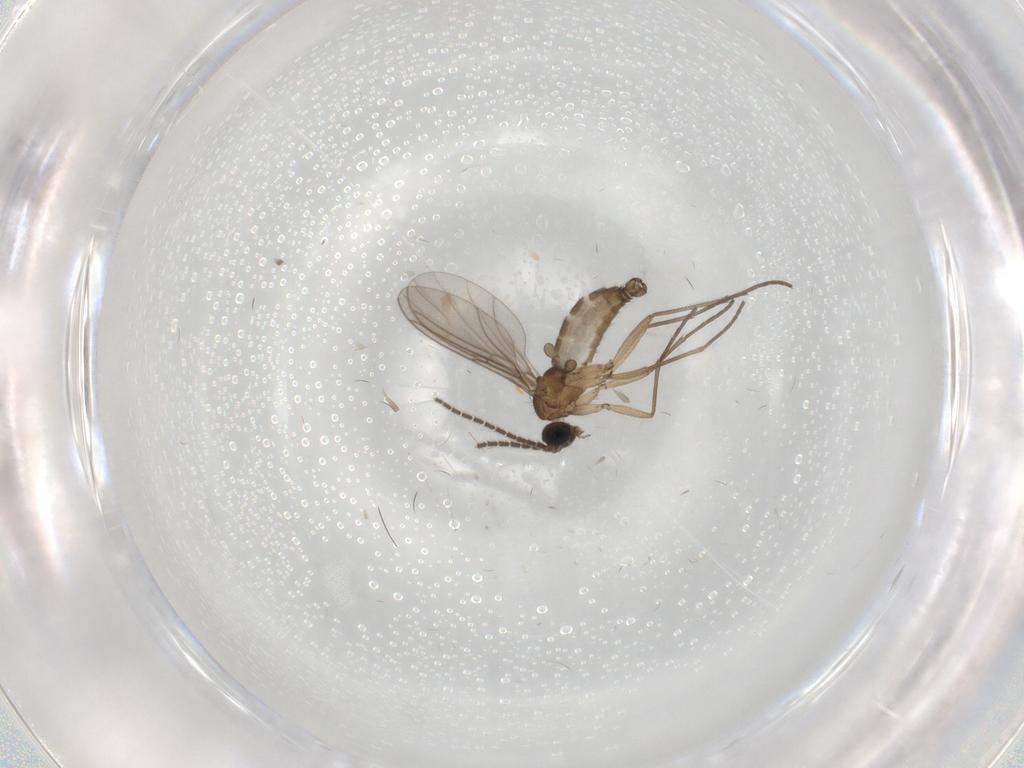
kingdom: Animalia
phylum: Arthropoda
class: Insecta
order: Diptera
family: Sciaridae
